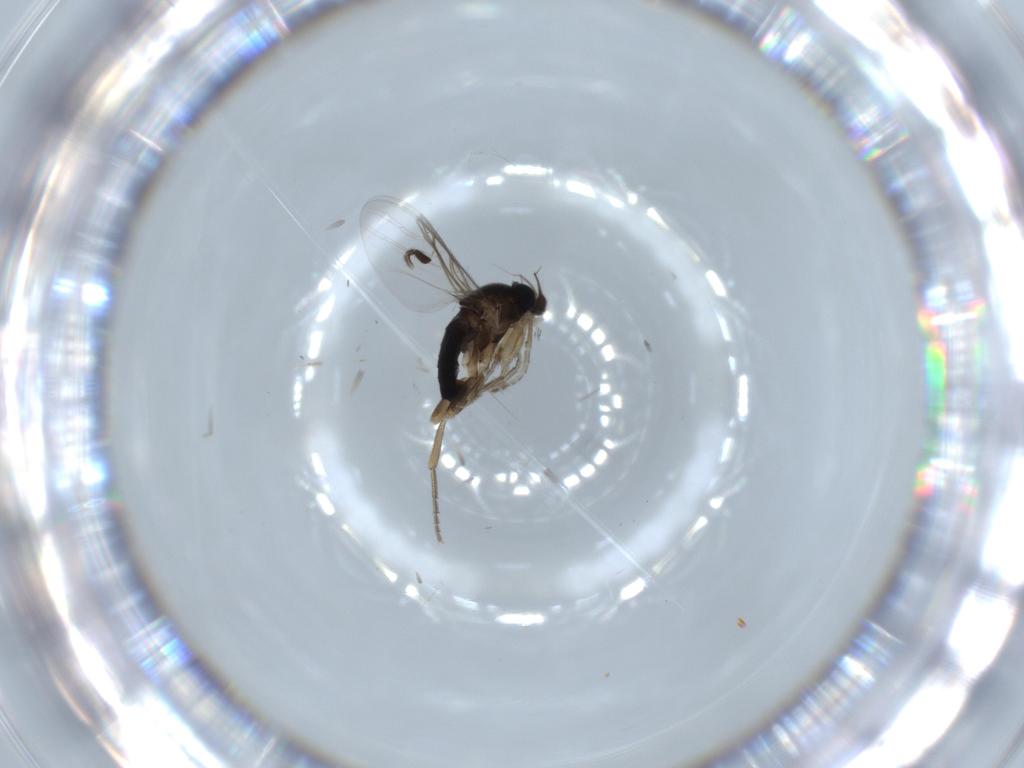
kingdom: Animalia
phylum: Arthropoda
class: Insecta
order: Diptera
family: Phoridae
